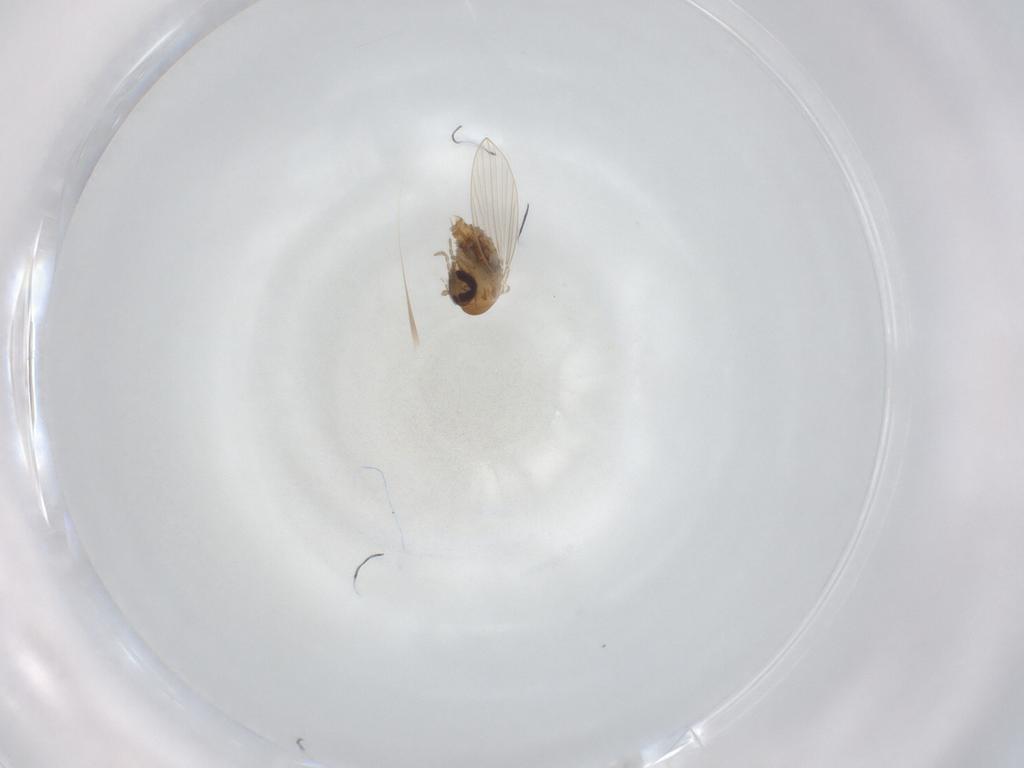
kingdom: Animalia
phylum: Arthropoda
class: Insecta
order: Diptera
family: Psychodidae
